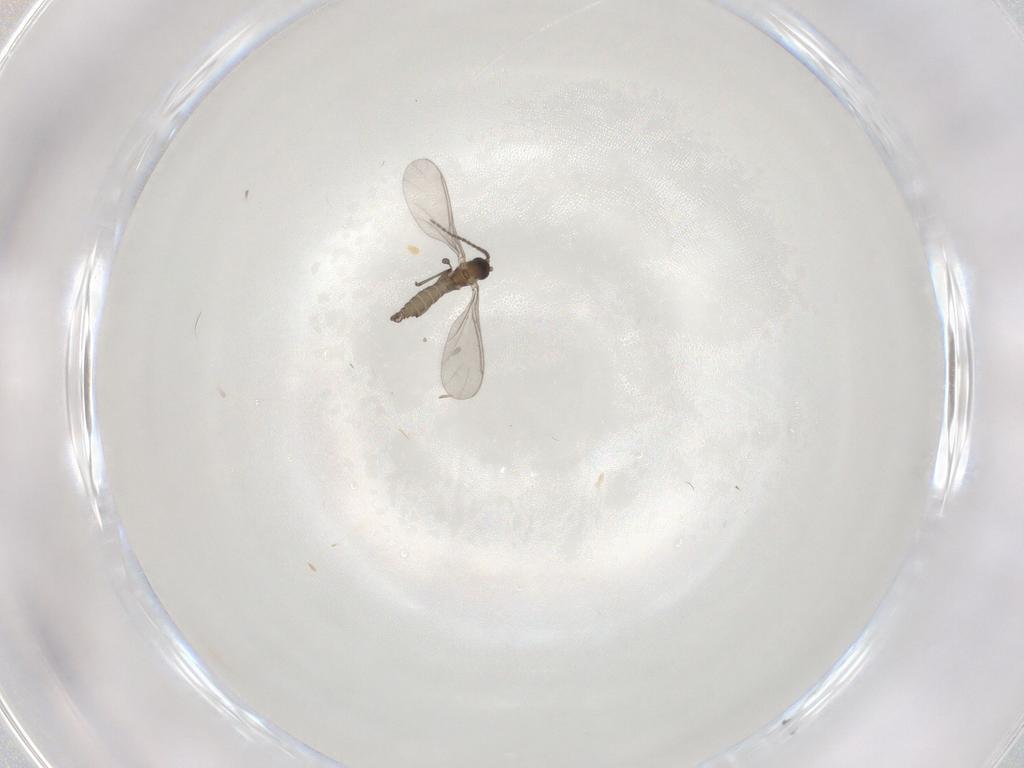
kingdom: Animalia
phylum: Arthropoda
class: Insecta
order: Diptera
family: Sciaridae
